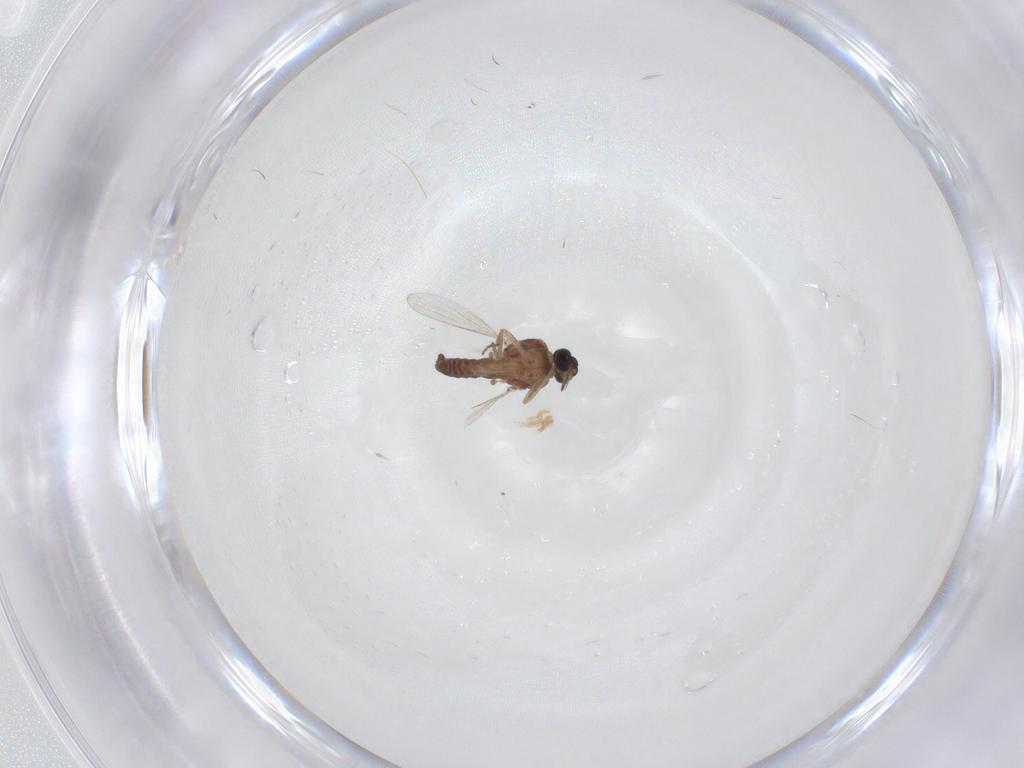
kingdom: Animalia
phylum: Arthropoda
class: Insecta
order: Diptera
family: Ceratopogonidae
